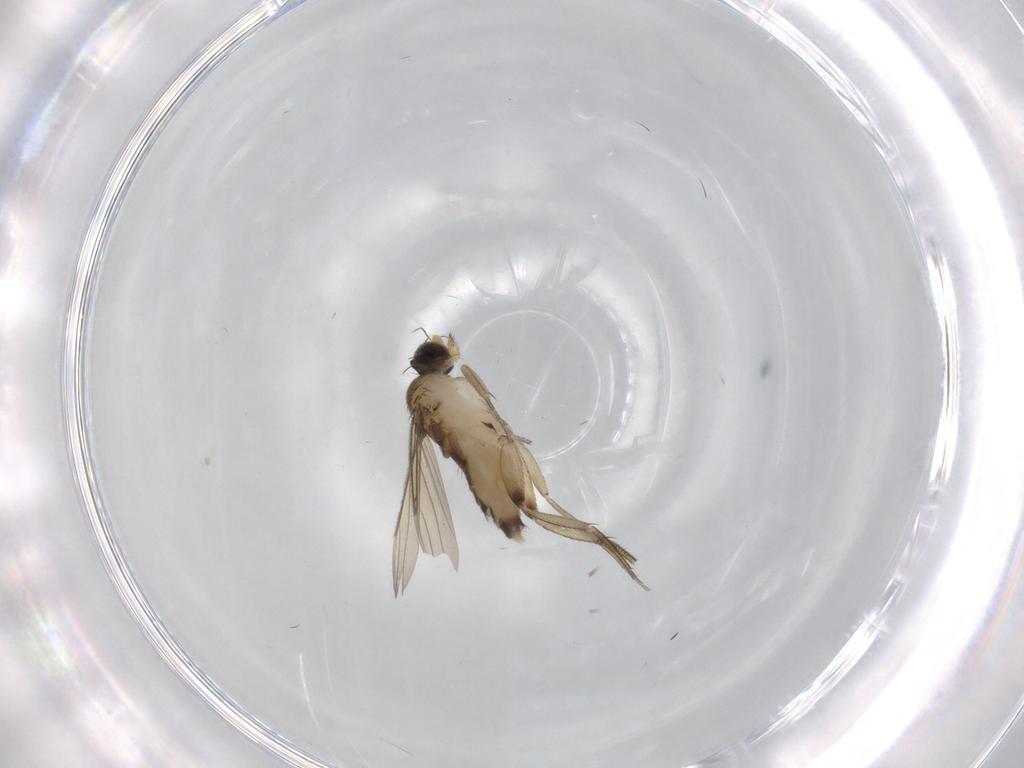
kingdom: Animalia
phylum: Arthropoda
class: Insecta
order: Diptera
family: Phoridae
